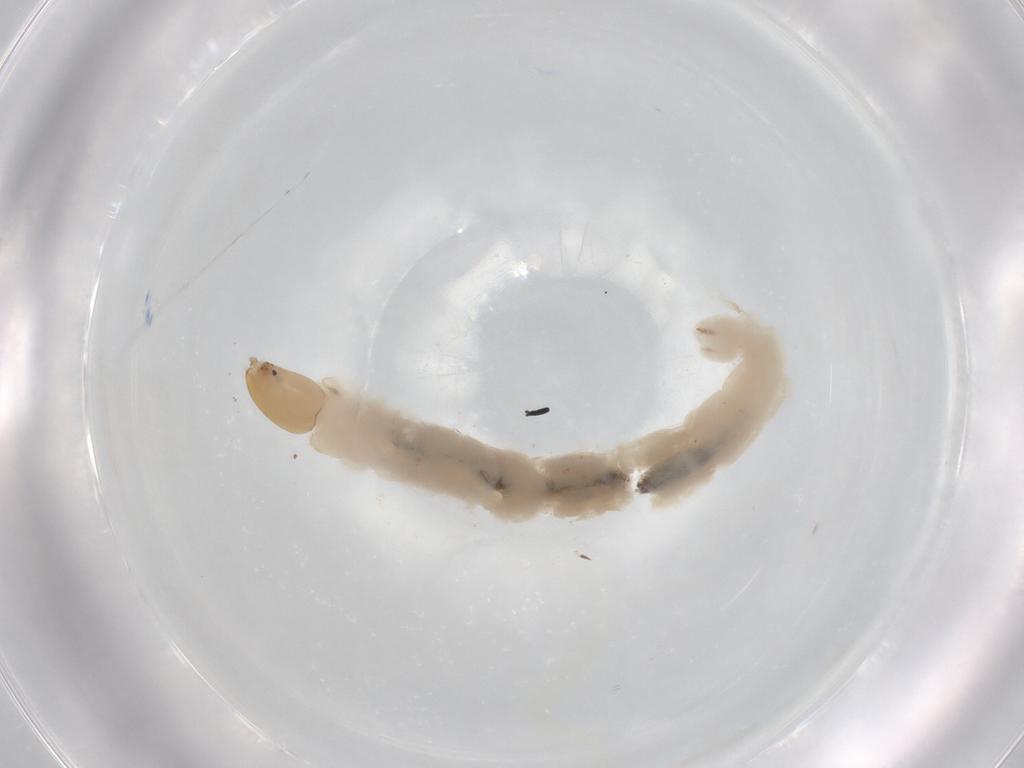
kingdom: Animalia
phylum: Arthropoda
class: Insecta
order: Diptera
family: Chironomidae
